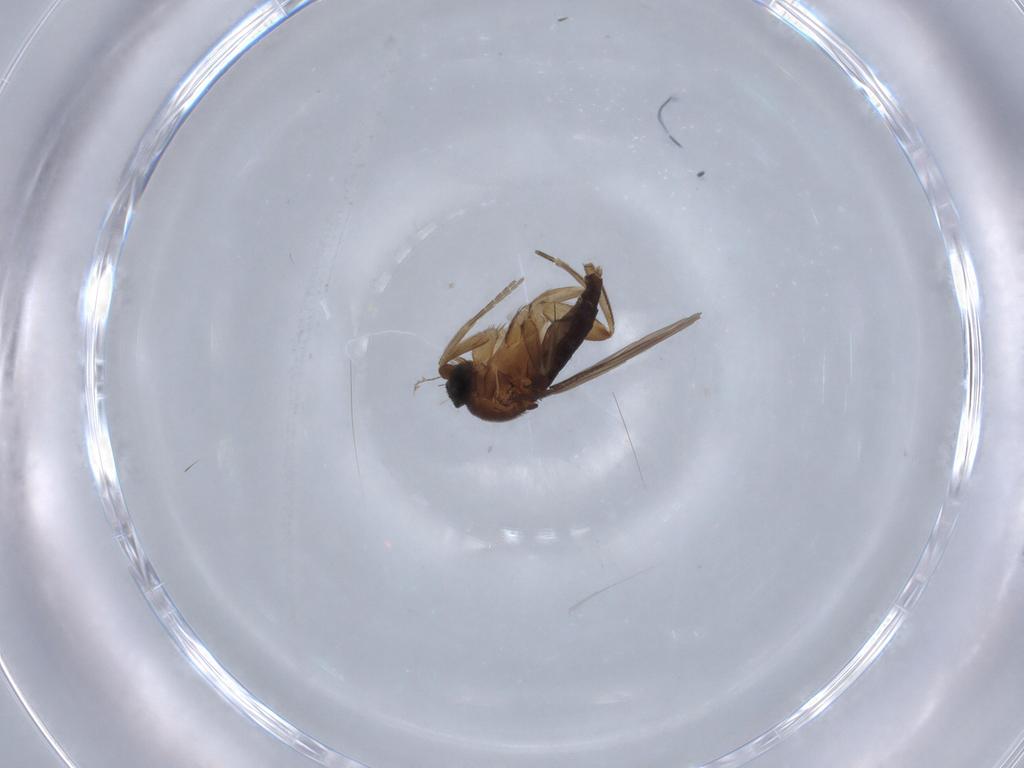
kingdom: Animalia
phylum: Arthropoda
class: Insecta
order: Diptera
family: Phoridae
